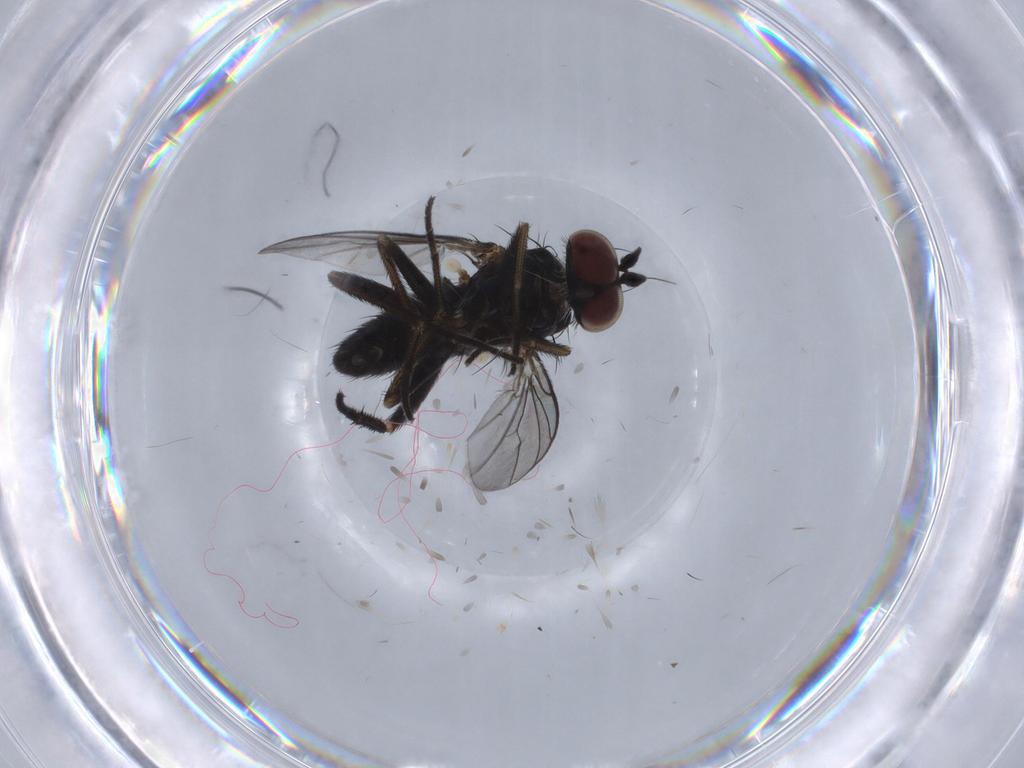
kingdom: Animalia
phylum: Arthropoda
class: Insecta
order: Diptera
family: Dolichopodidae
